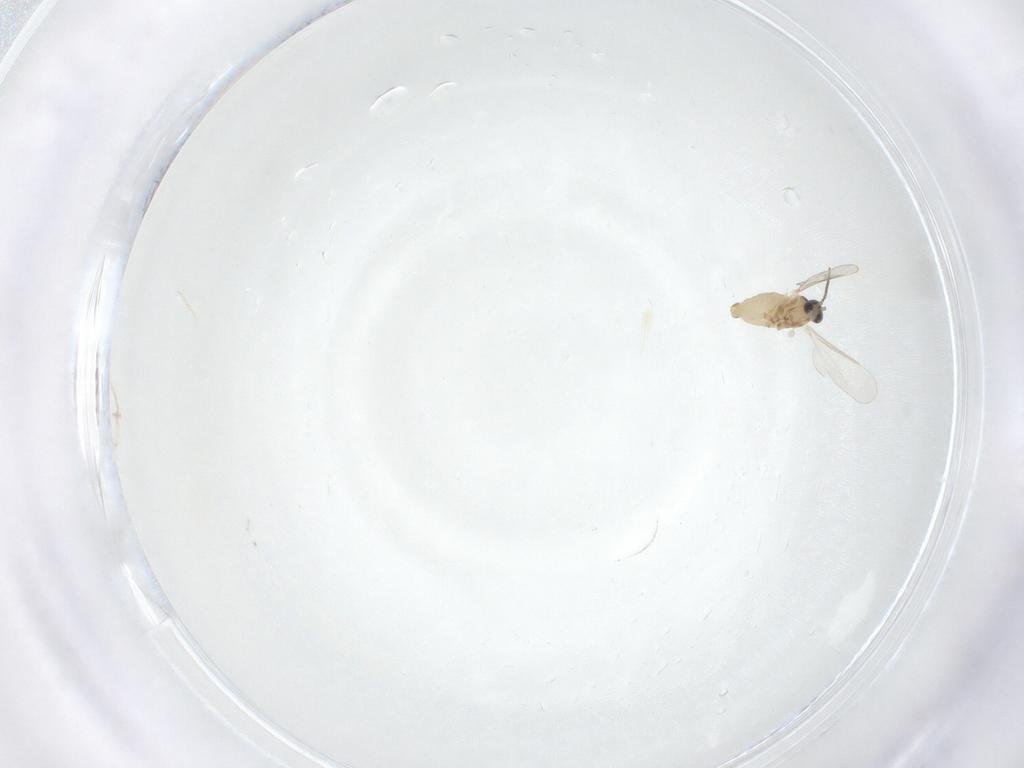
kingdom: Animalia
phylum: Arthropoda
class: Insecta
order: Diptera
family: Cecidomyiidae
